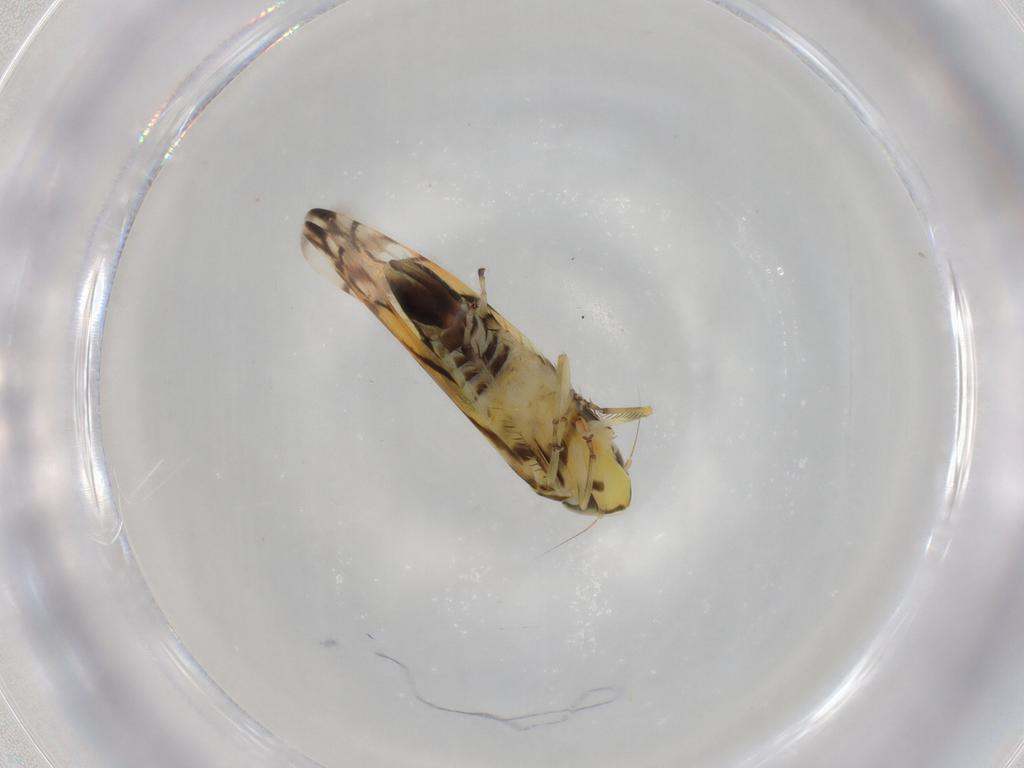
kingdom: Animalia
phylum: Arthropoda
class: Insecta
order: Hemiptera
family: Cicadellidae
